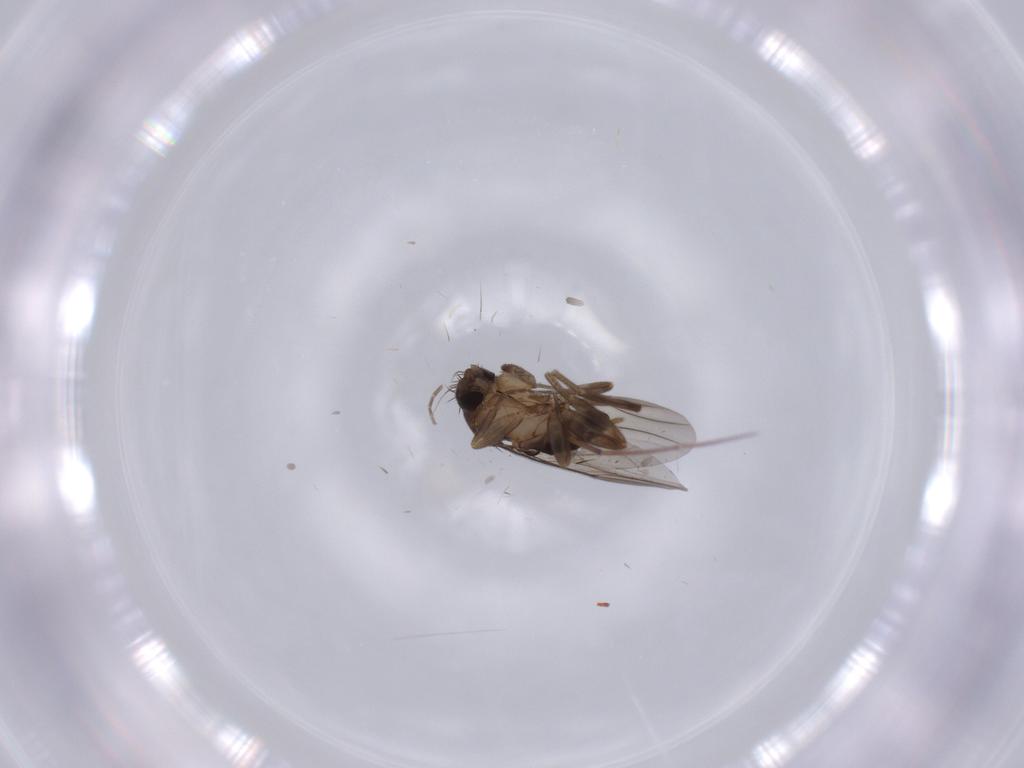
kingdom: Animalia
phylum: Arthropoda
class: Insecta
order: Diptera
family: Phoridae
